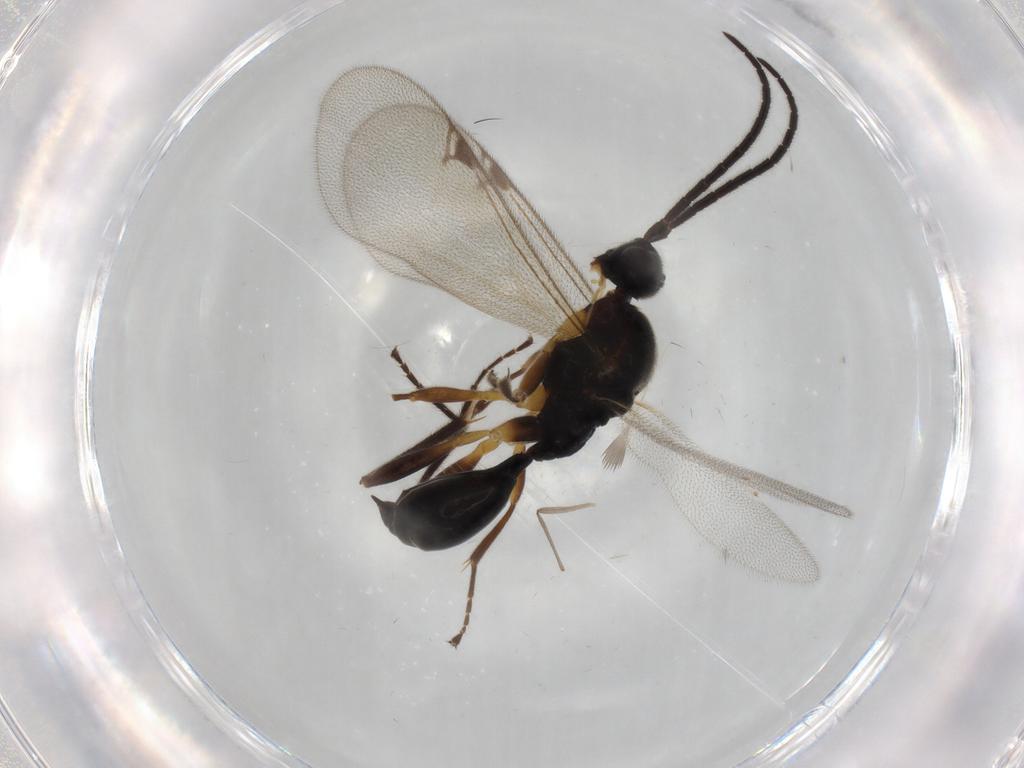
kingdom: Animalia
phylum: Arthropoda
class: Insecta
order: Hymenoptera
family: Proctotrupidae
